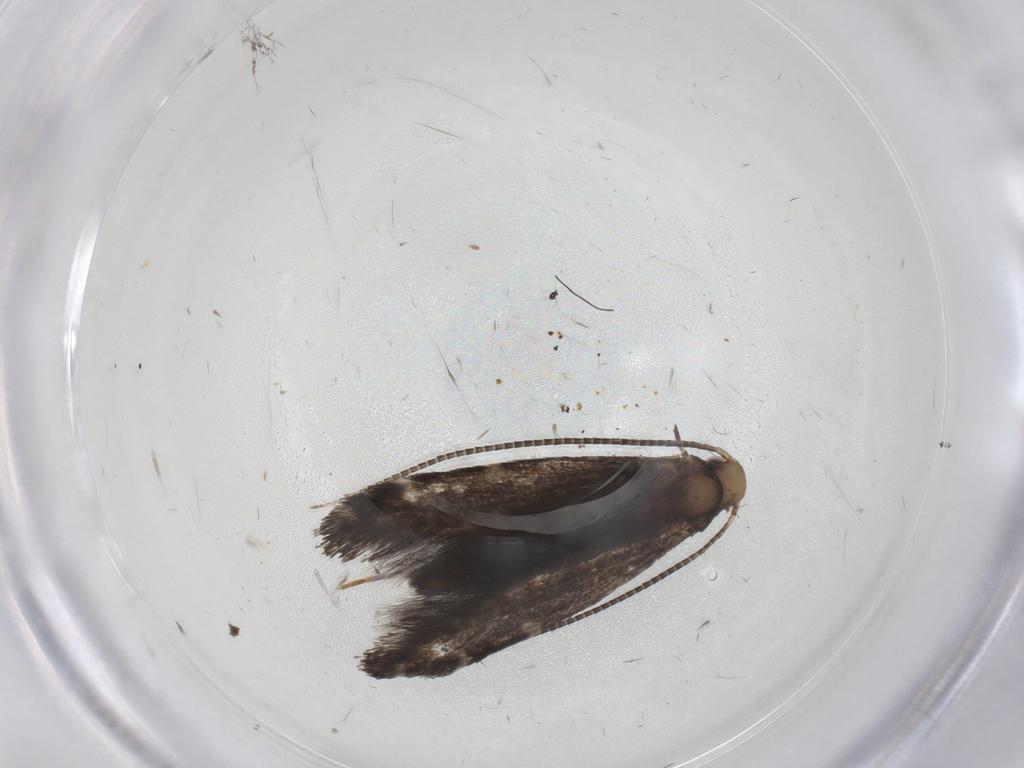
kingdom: Animalia
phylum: Arthropoda
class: Insecta
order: Lepidoptera
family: Gracillariidae
